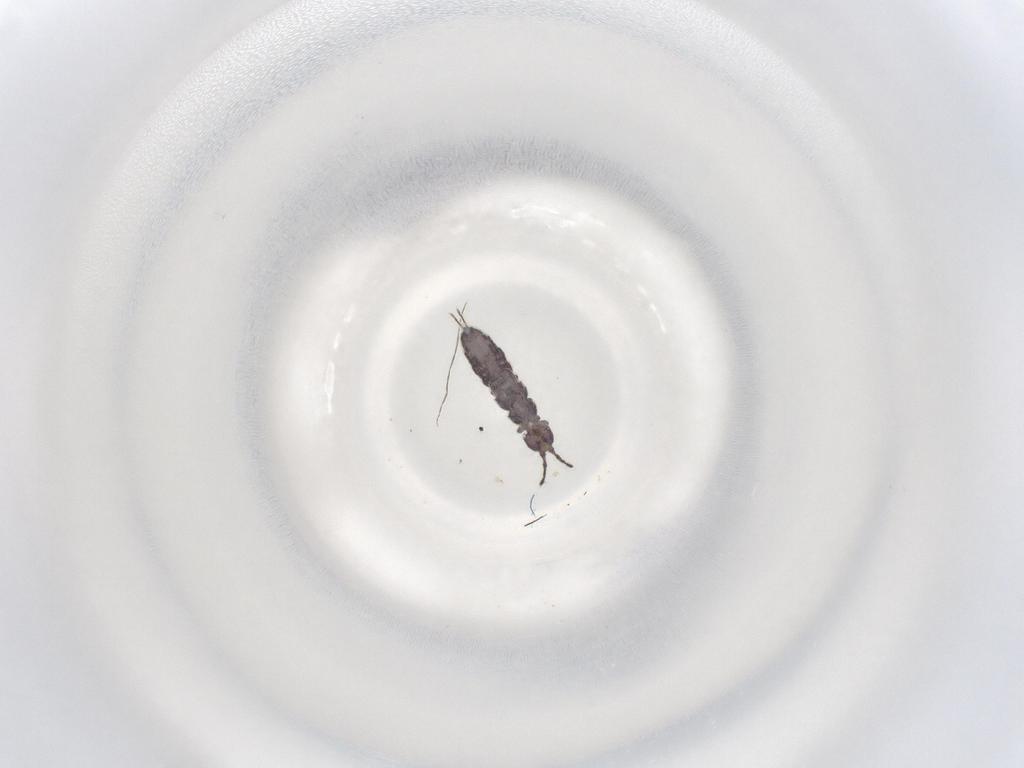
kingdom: Animalia
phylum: Arthropoda
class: Collembola
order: Entomobryomorpha
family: Isotomidae
